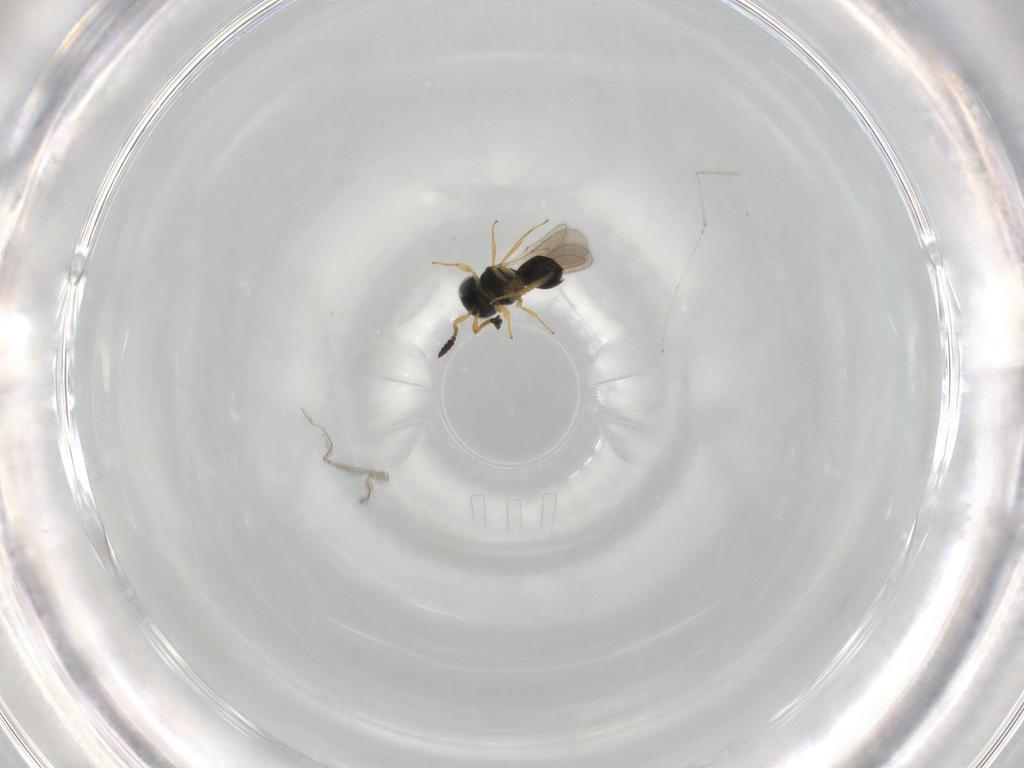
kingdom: Animalia
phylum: Arthropoda
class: Insecta
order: Hymenoptera
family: Scelionidae
